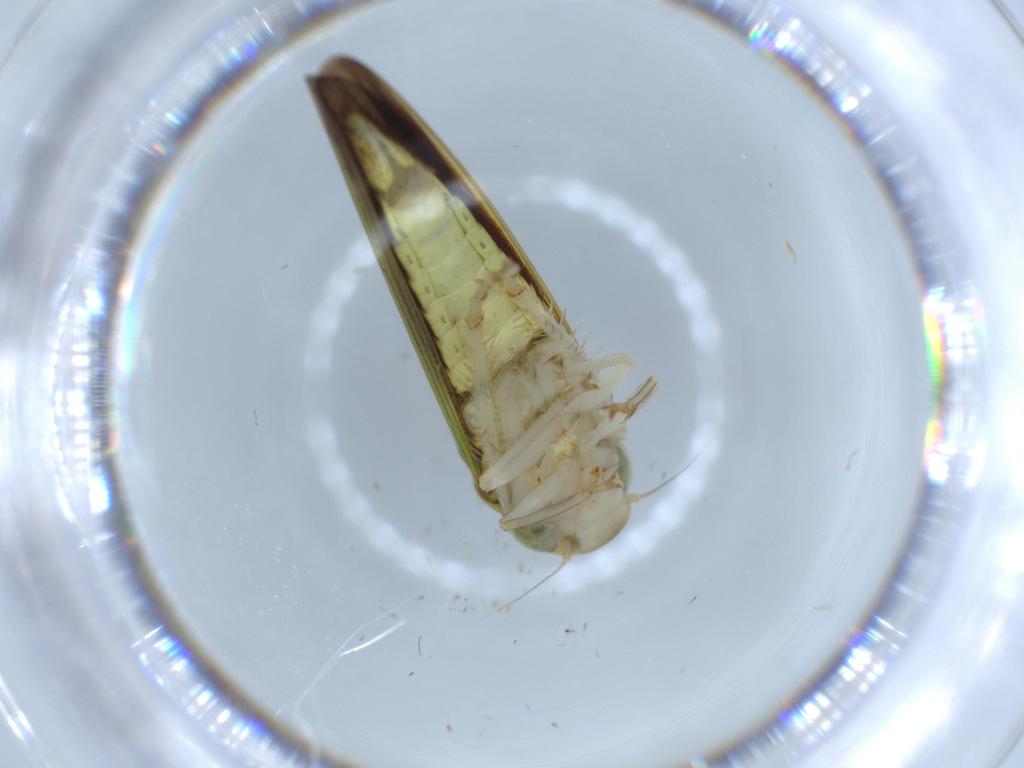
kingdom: Animalia
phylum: Arthropoda
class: Insecta
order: Hemiptera
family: Cicadellidae
